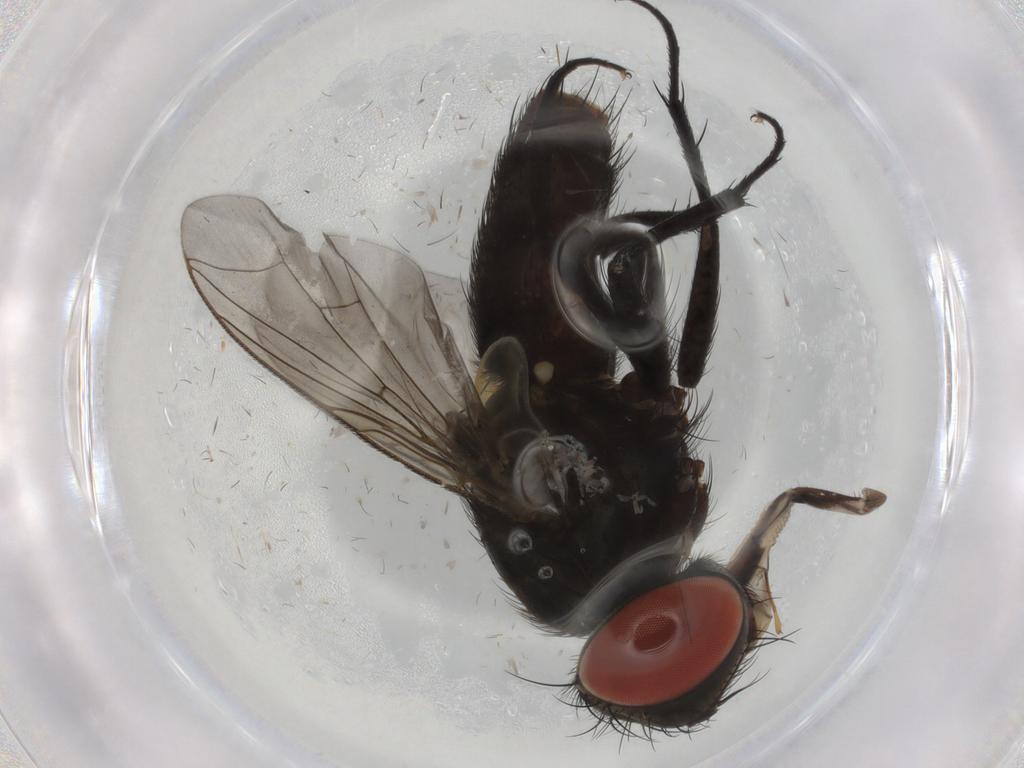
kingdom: Animalia
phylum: Arthropoda
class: Insecta
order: Diptera
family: Sarcophagidae
